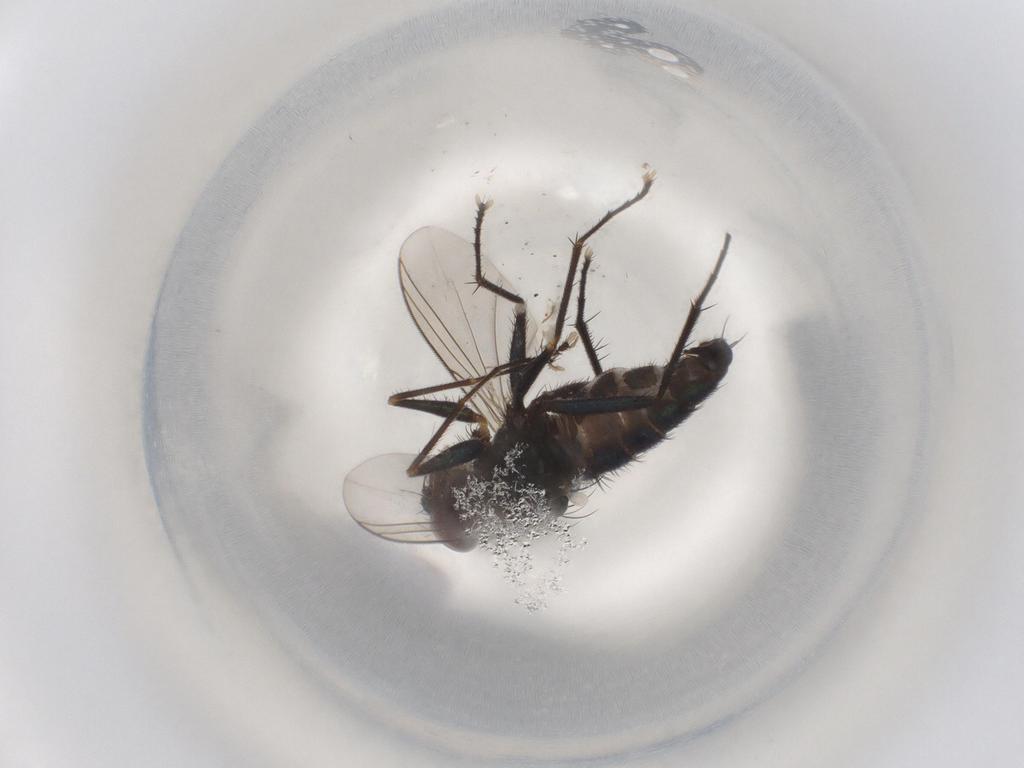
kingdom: Animalia
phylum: Arthropoda
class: Insecta
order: Diptera
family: Dolichopodidae
